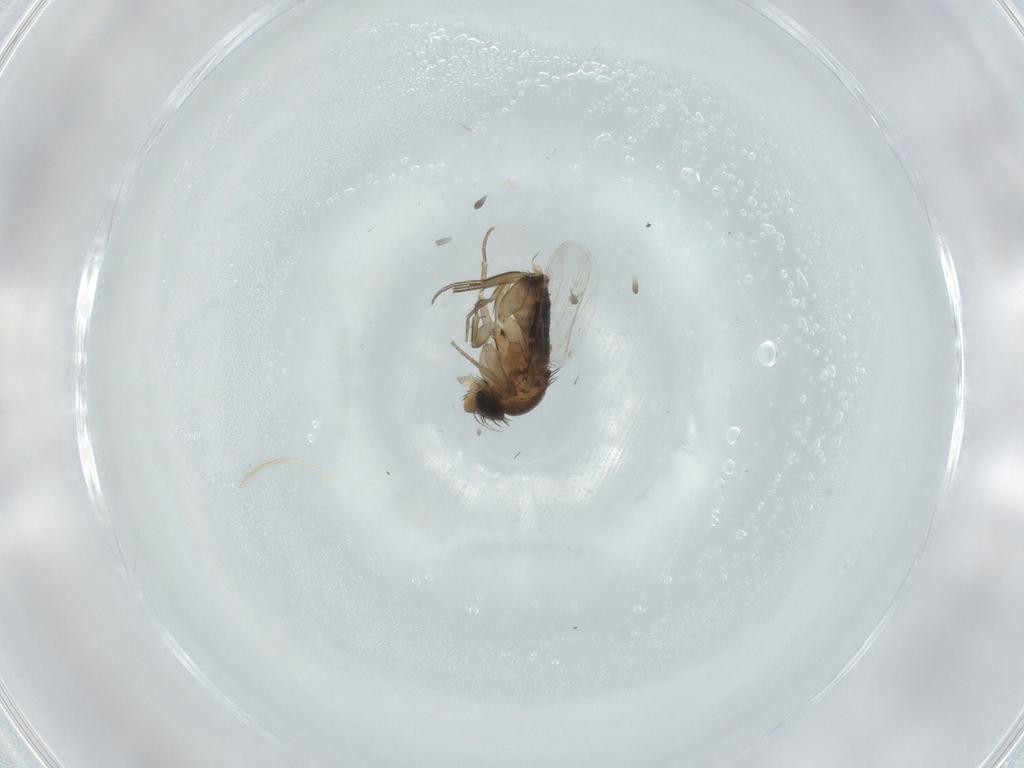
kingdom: Animalia
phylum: Arthropoda
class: Insecta
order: Diptera
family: Phoridae
